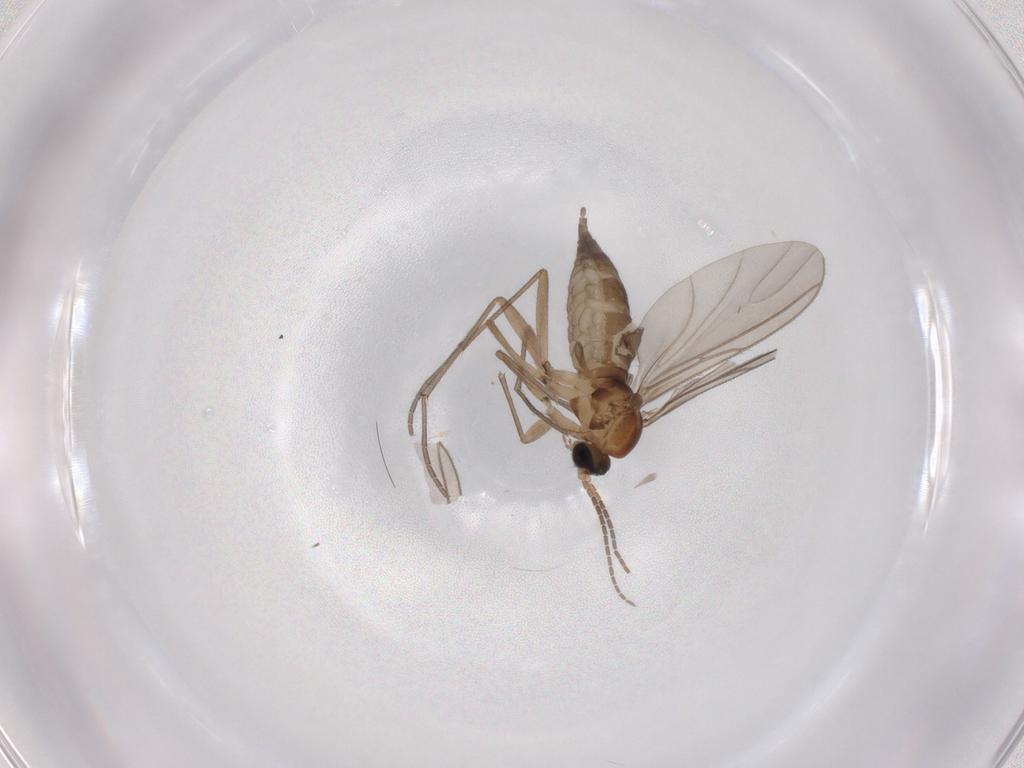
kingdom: Animalia
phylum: Arthropoda
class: Insecta
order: Diptera
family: Sciaridae
